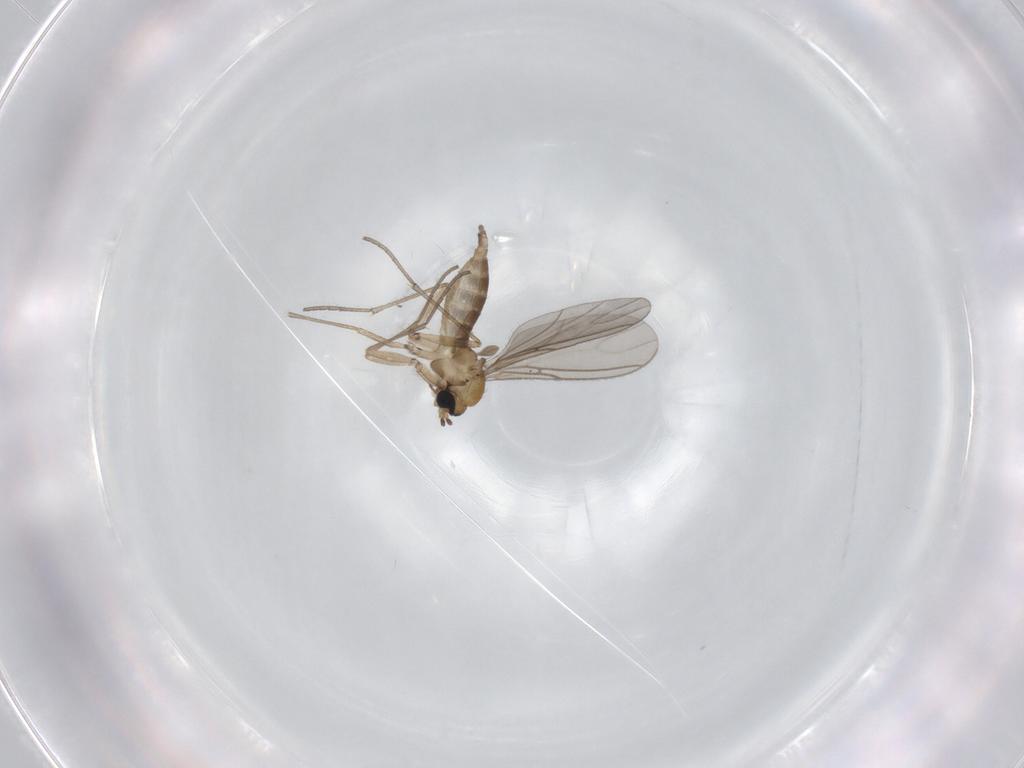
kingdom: Animalia
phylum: Arthropoda
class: Insecta
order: Diptera
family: Sciaridae
